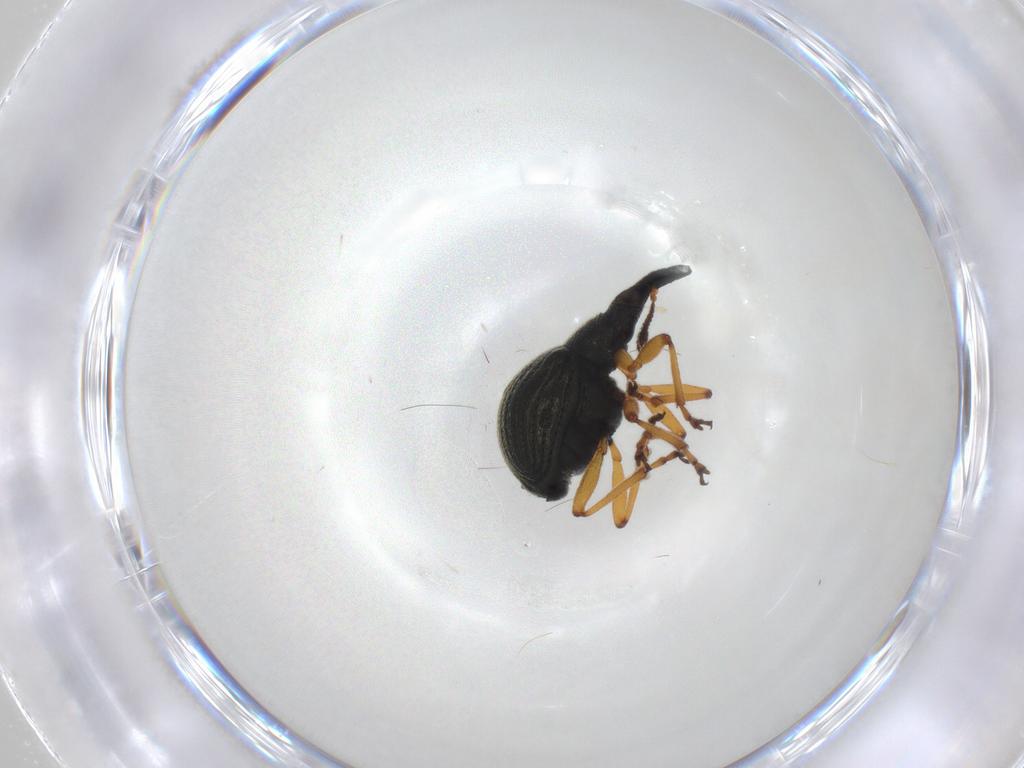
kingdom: Animalia
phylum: Arthropoda
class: Insecta
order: Coleoptera
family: Brentidae
